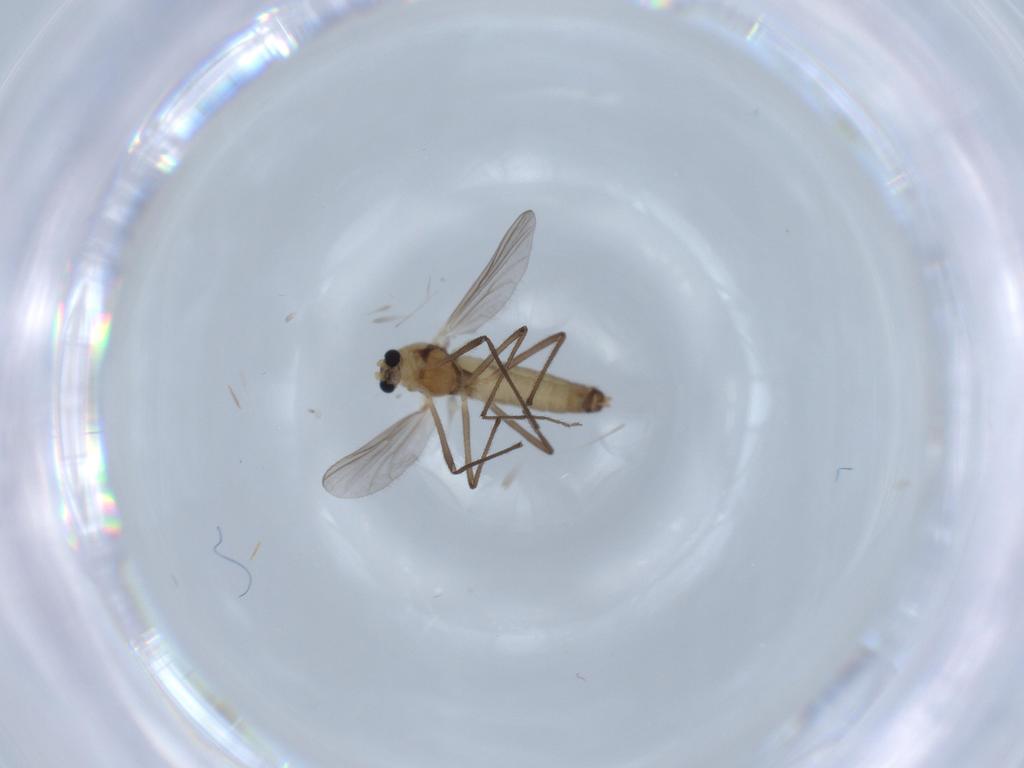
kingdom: Animalia
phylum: Arthropoda
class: Insecta
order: Diptera
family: Chironomidae
